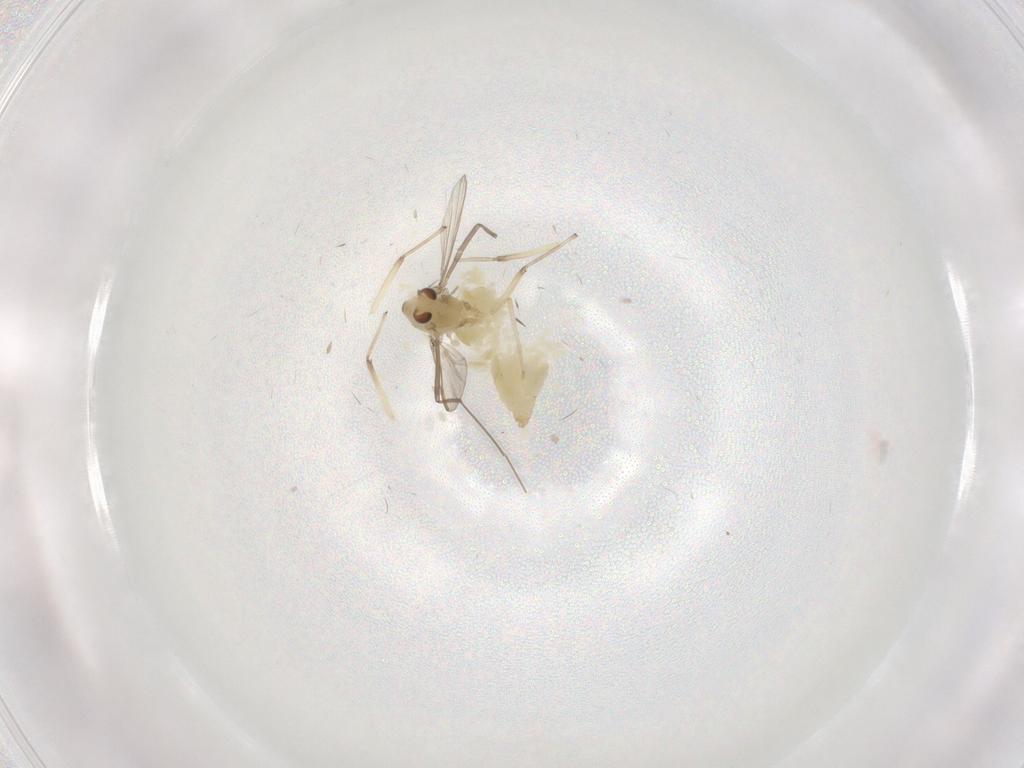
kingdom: Animalia
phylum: Arthropoda
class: Insecta
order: Diptera
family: Chironomidae
